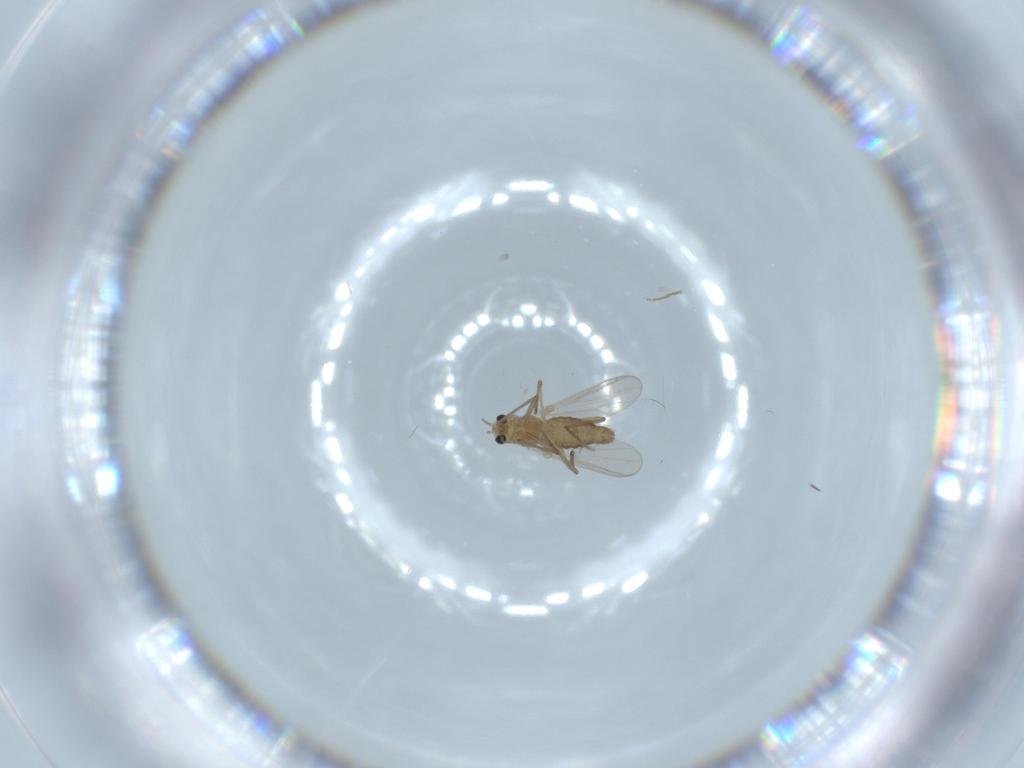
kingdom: Animalia
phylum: Arthropoda
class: Insecta
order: Diptera
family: Chironomidae
